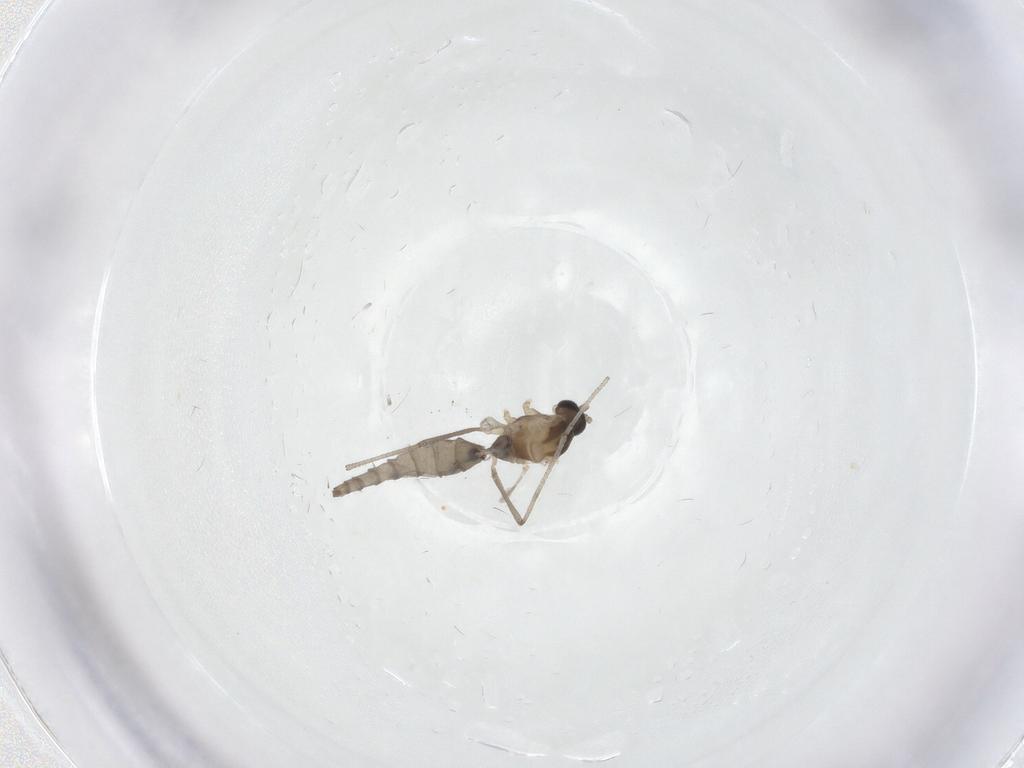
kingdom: Animalia
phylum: Arthropoda
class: Insecta
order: Diptera
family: Cecidomyiidae
